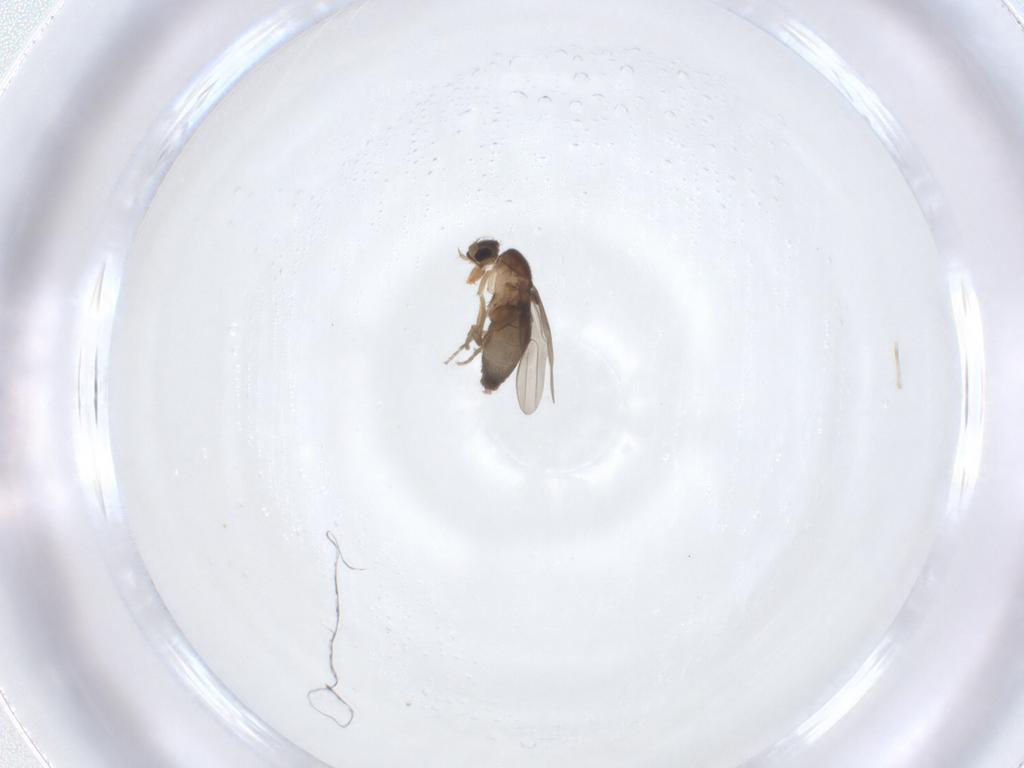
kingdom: Animalia
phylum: Arthropoda
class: Insecta
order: Diptera
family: Phoridae
